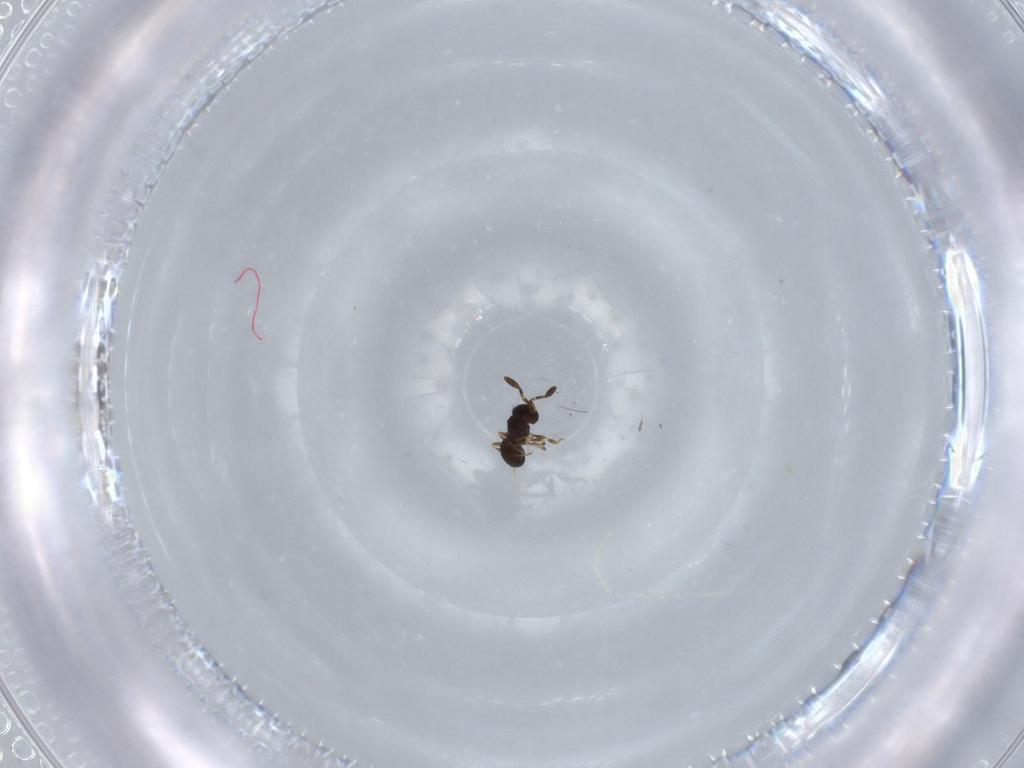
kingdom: Animalia
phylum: Arthropoda
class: Insecta
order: Hymenoptera
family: Scelionidae
